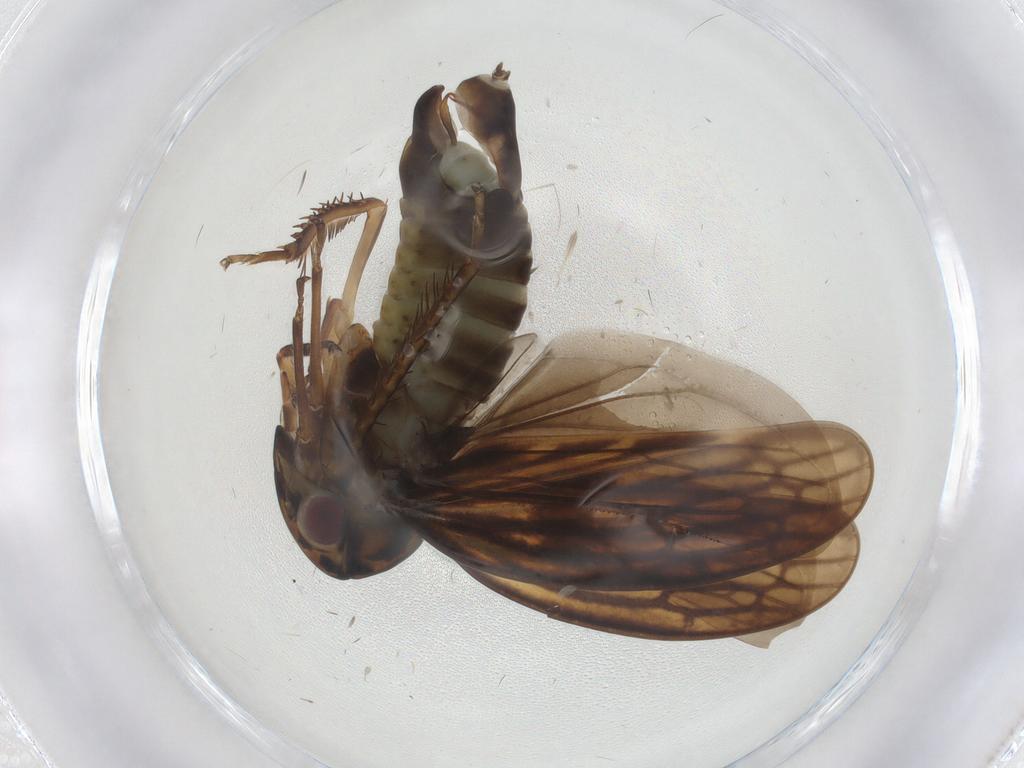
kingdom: Animalia
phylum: Arthropoda
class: Insecta
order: Hemiptera
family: Cicadellidae
